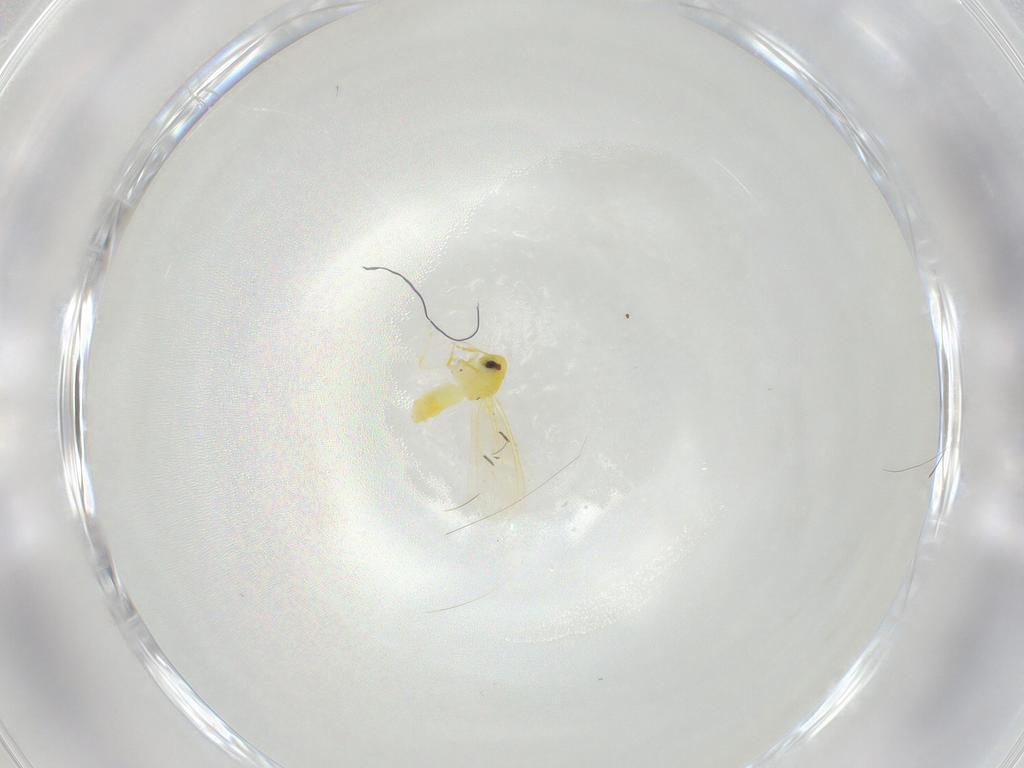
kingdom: Animalia
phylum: Arthropoda
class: Insecta
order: Hemiptera
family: Aleyrodidae
